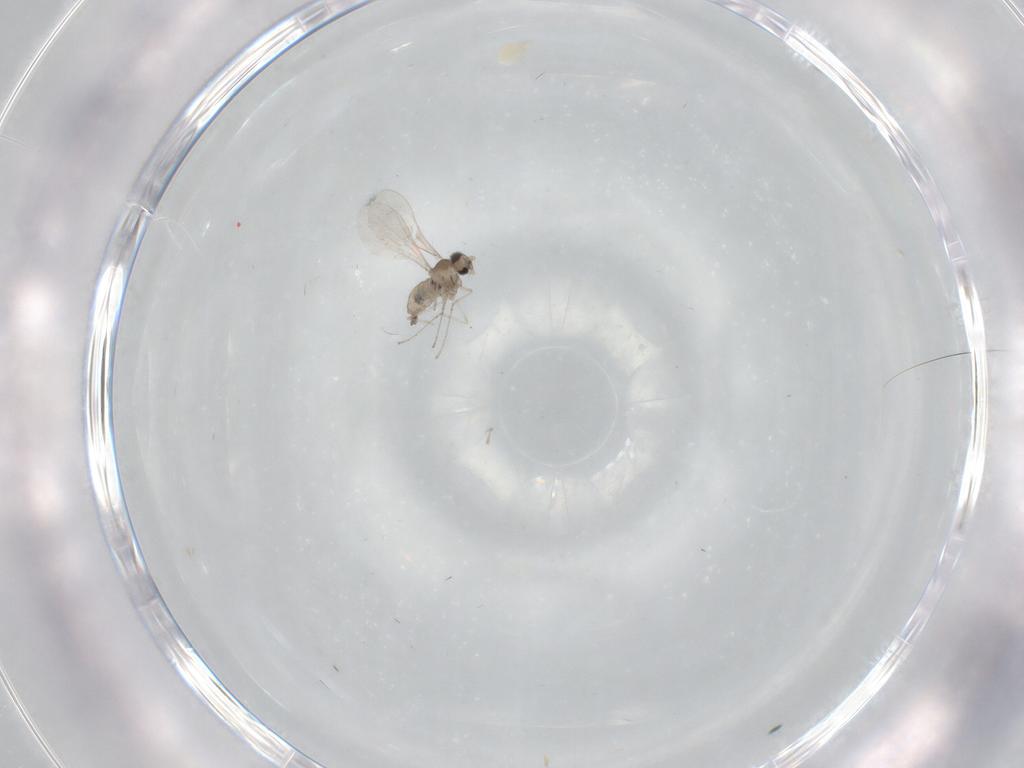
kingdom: Animalia
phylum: Arthropoda
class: Insecta
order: Diptera
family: Cecidomyiidae
